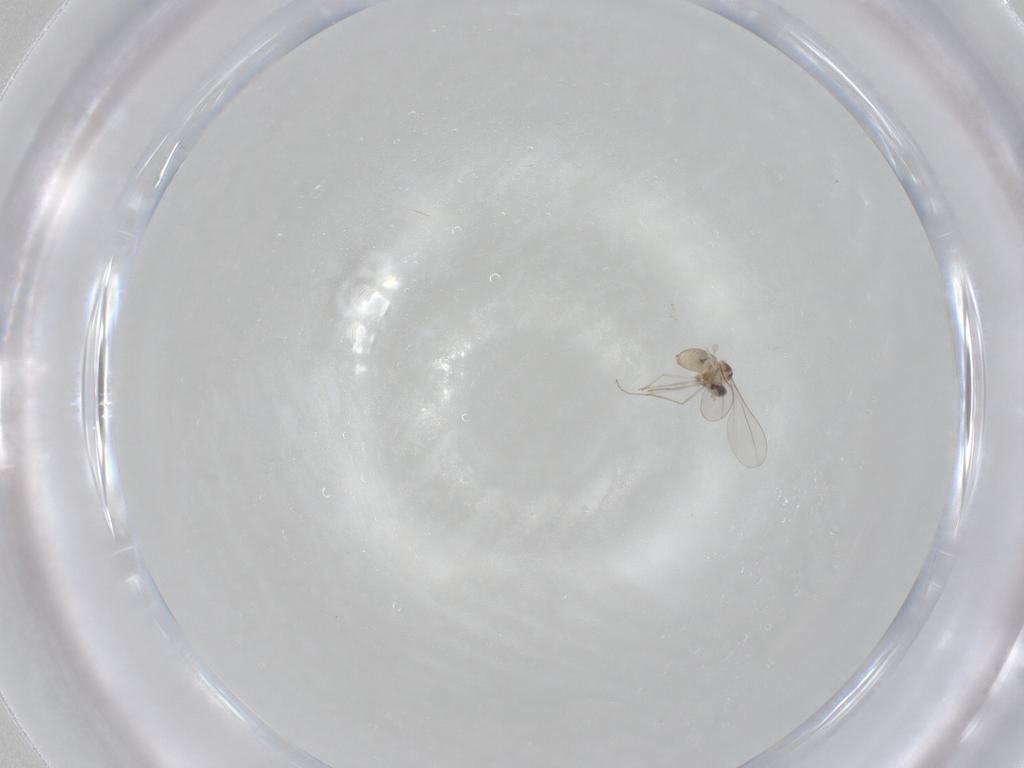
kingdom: Animalia
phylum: Arthropoda
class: Insecta
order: Diptera
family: Cecidomyiidae
